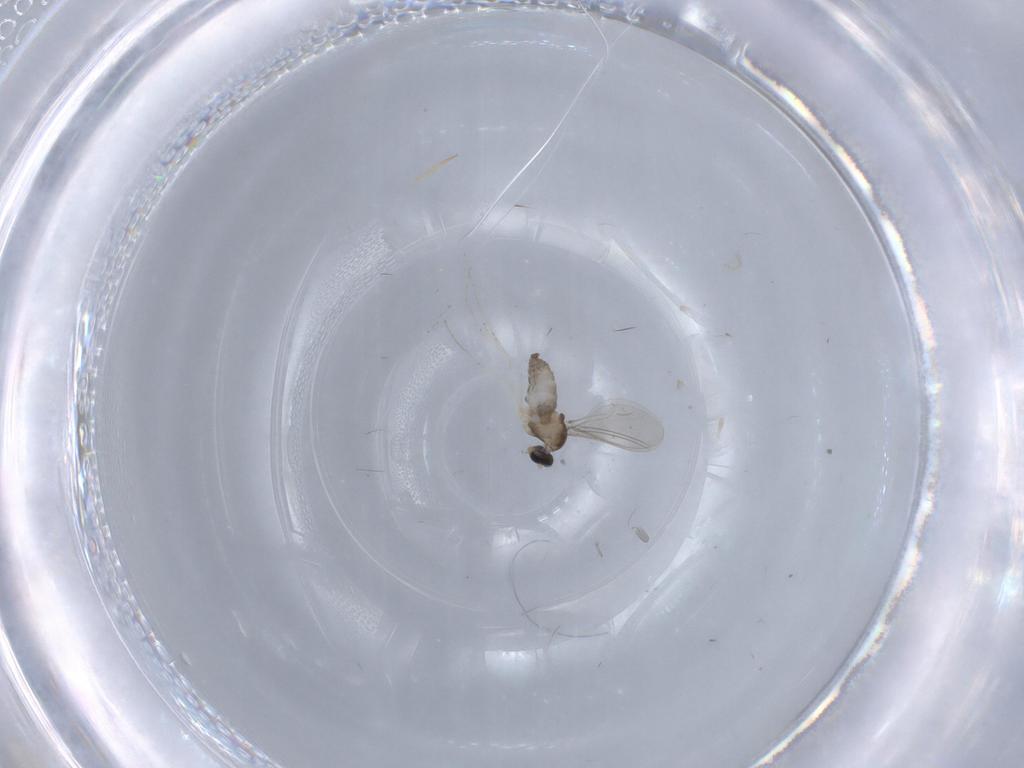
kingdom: Animalia
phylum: Arthropoda
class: Insecta
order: Diptera
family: Cecidomyiidae
